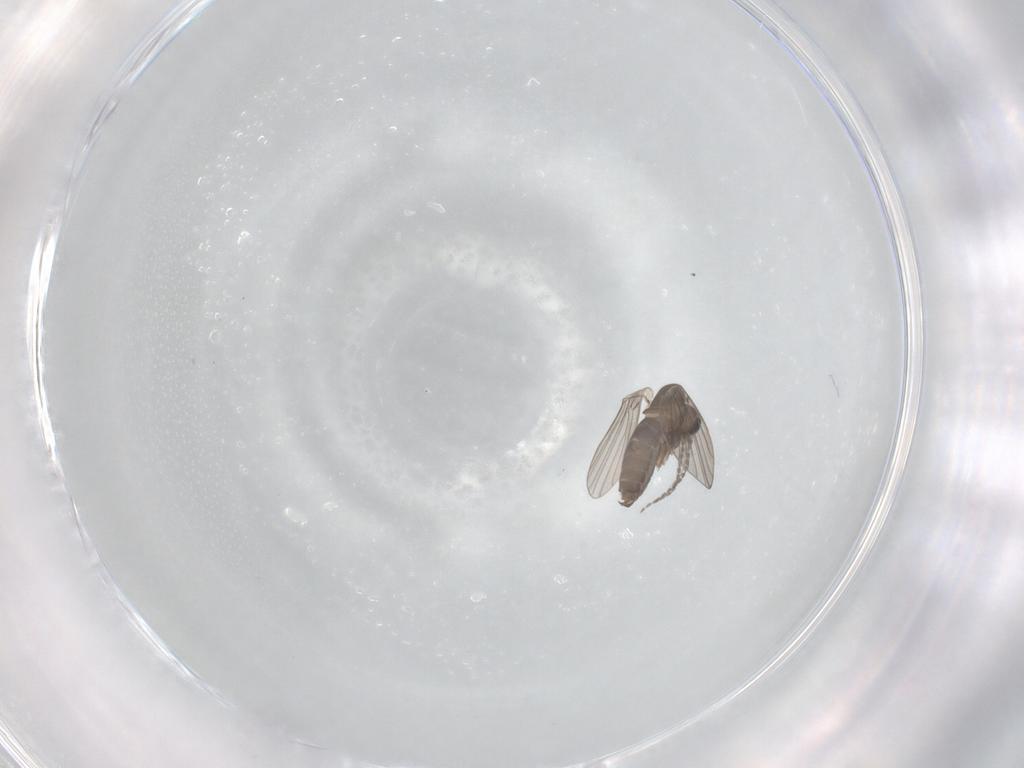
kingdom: Animalia
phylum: Arthropoda
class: Insecta
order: Diptera
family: Psychodidae
